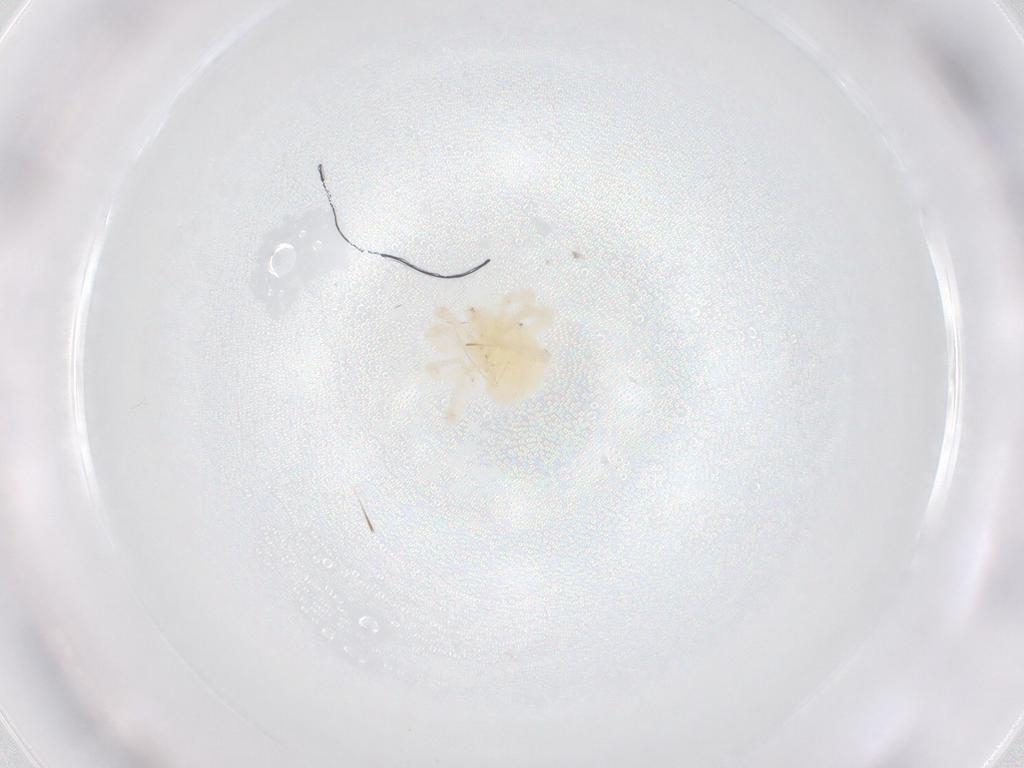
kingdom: Animalia
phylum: Arthropoda
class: Arachnida
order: Trombidiformes
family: Anystidae
